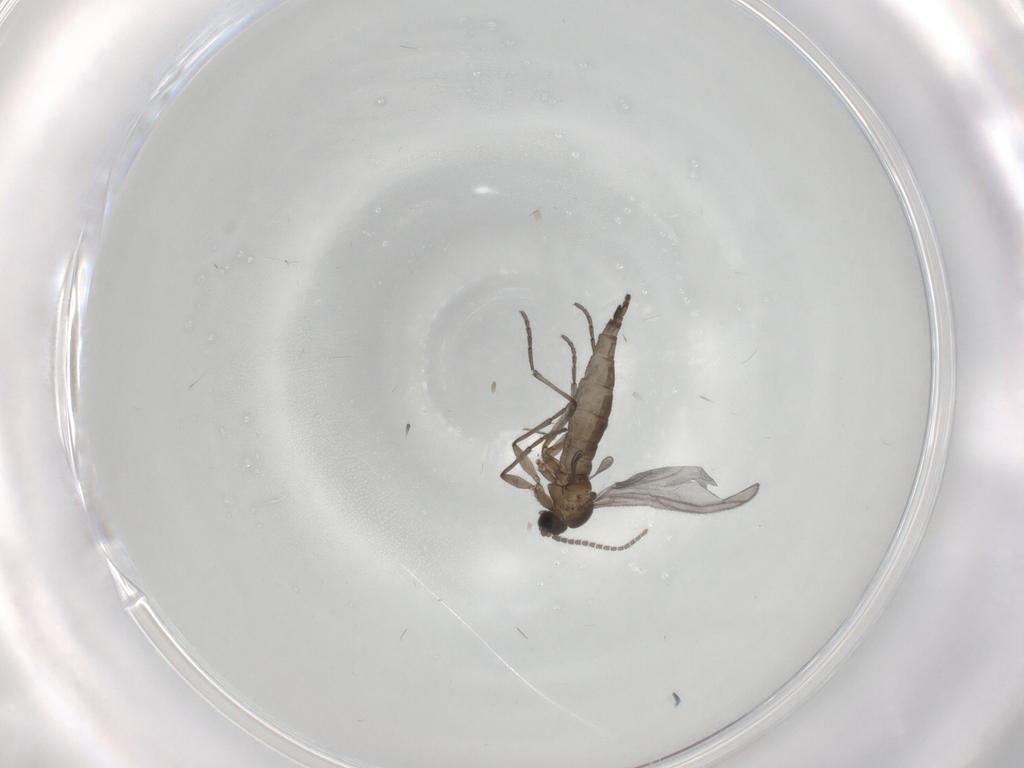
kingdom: Animalia
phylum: Arthropoda
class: Insecta
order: Diptera
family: Sciaridae
